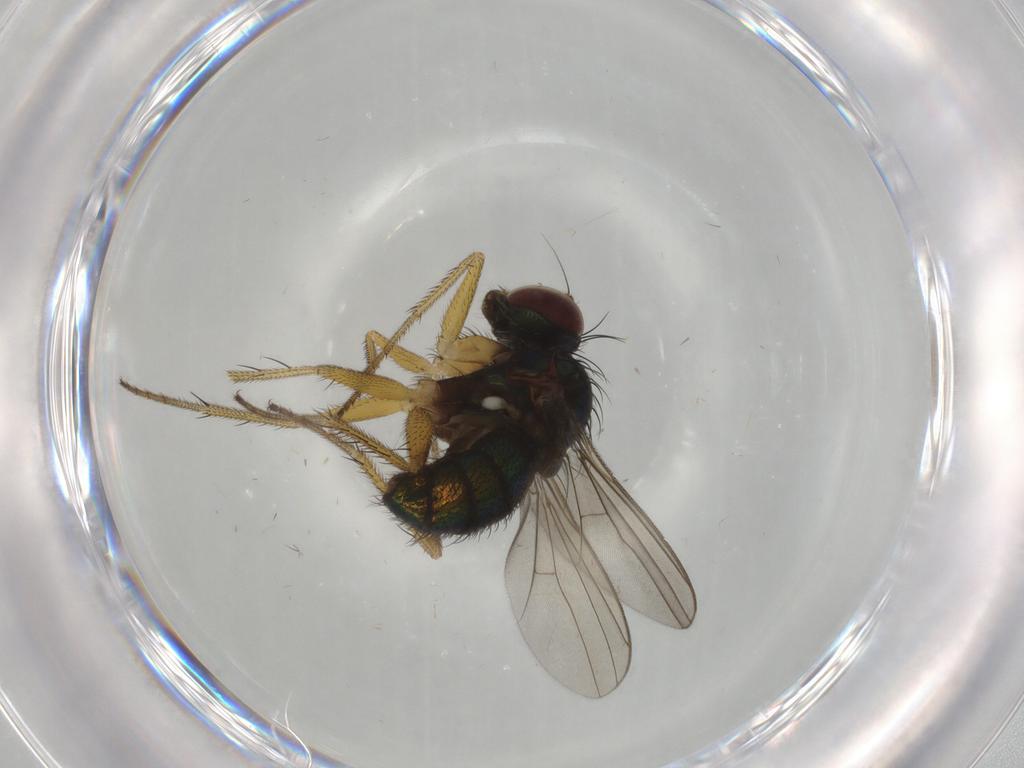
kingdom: Animalia
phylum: Arthropoda
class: Insecta
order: Diptera
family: Dolichopodidae
